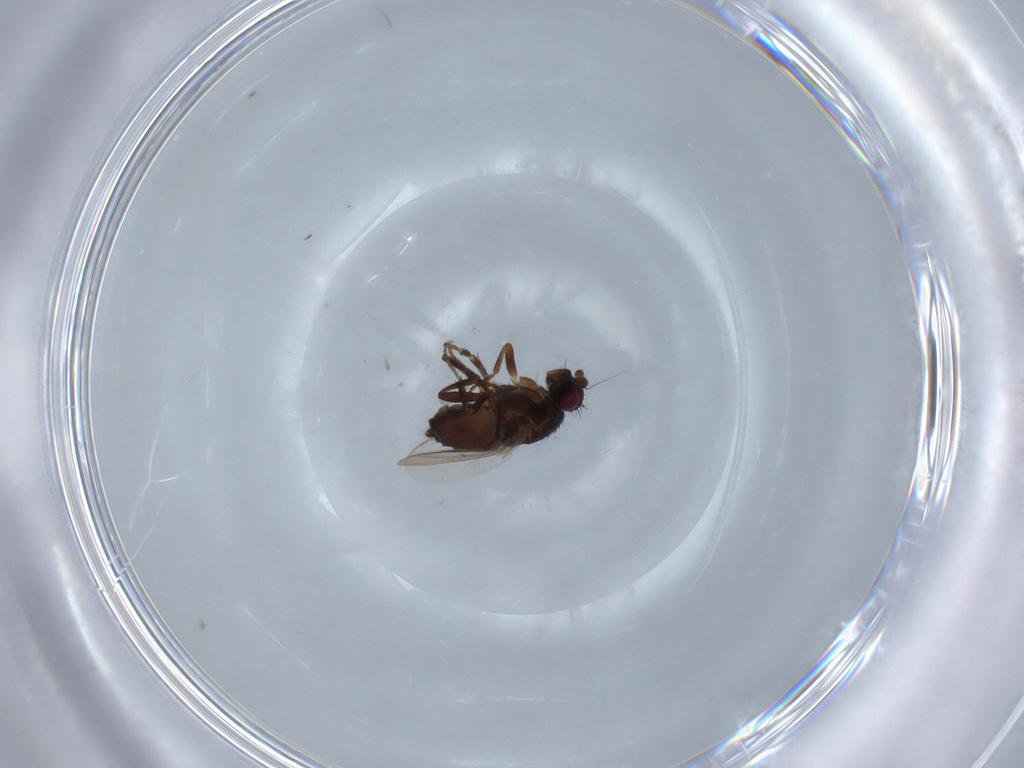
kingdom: Animalia
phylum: Arthropoda
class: Insecta
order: Diptera
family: Sphaeroceridae
